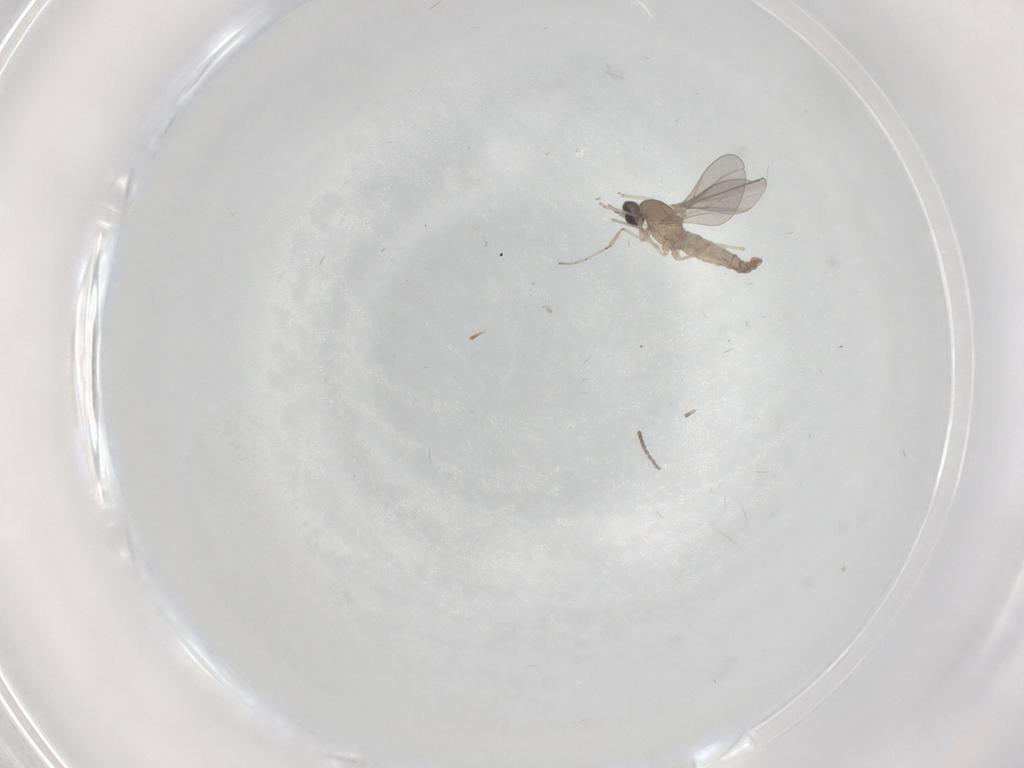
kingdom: Animalia
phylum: Arthropoda
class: Insecta
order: Diptera
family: Cecidomyiidae
